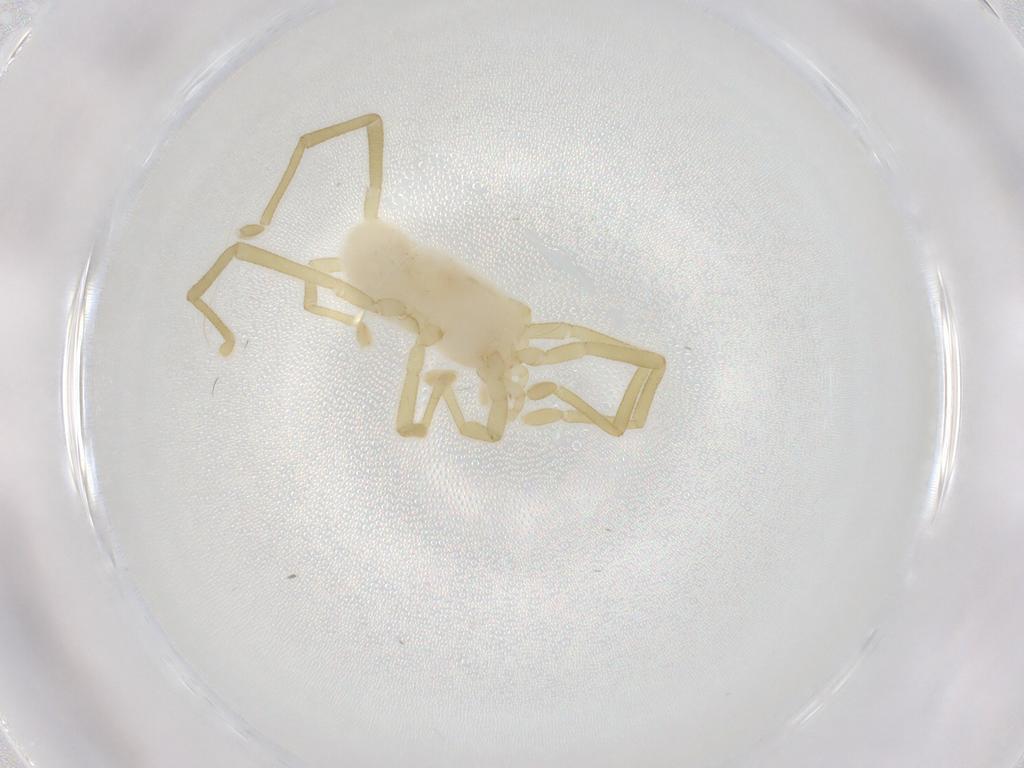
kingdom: Animalia
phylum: Arthropoda
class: Arachnida
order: Trombidiformes
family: Erythraeidae
